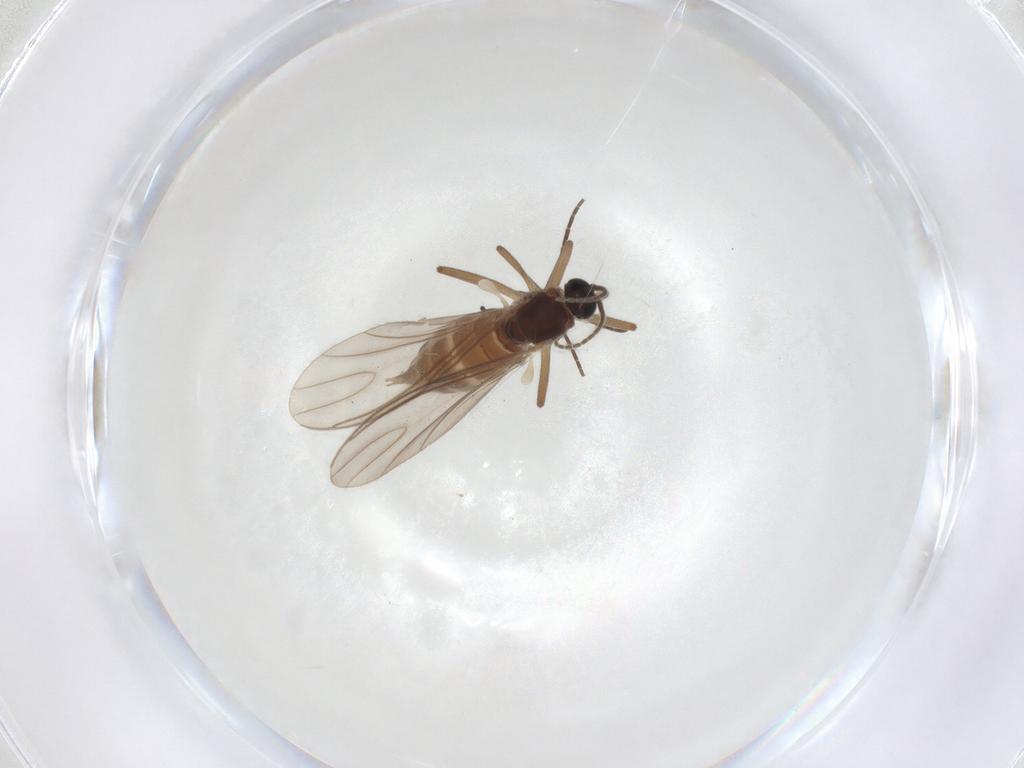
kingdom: Animalia
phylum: Arthropoda
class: Insecta
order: Diptera
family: Sciaridae
